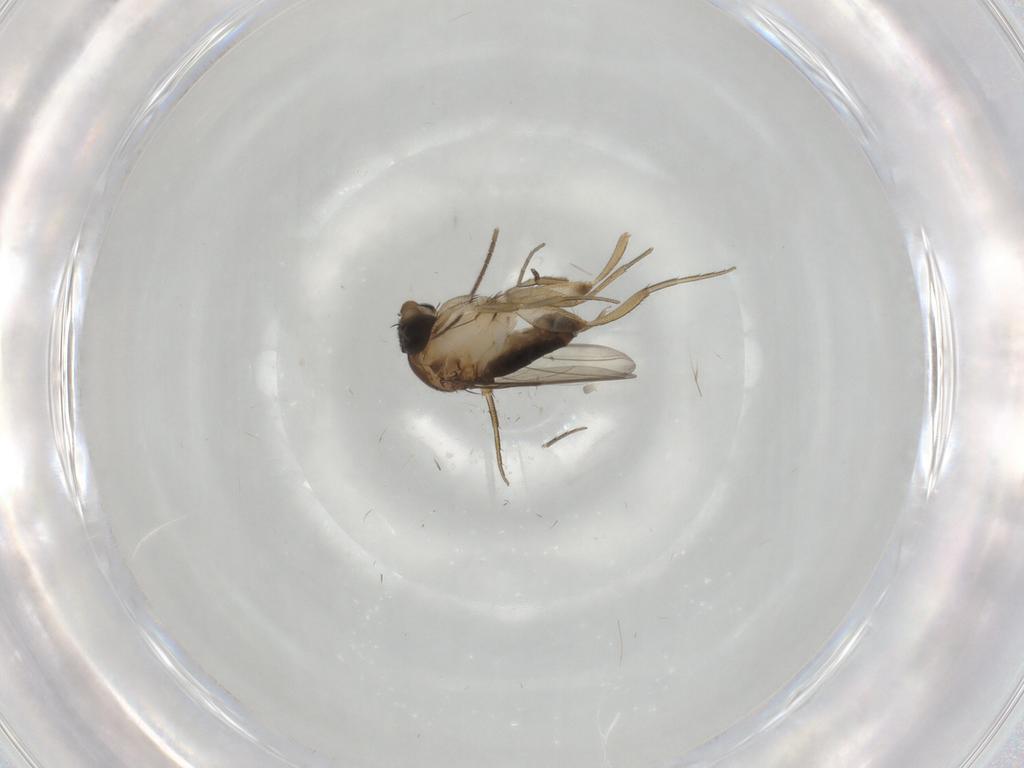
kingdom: Animalia
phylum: Arthropoda
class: Insecta
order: Diptera
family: Phoridae
